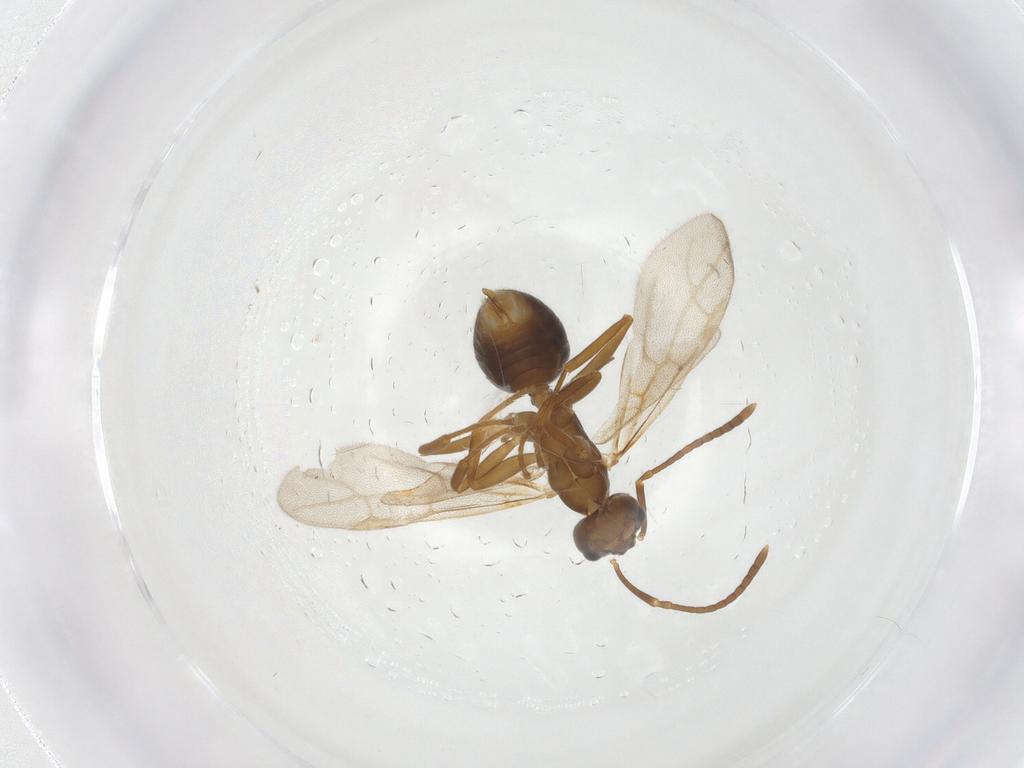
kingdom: Animalia
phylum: Arthropoda
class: Insecta
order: Hymenoptera
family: Formicidae
